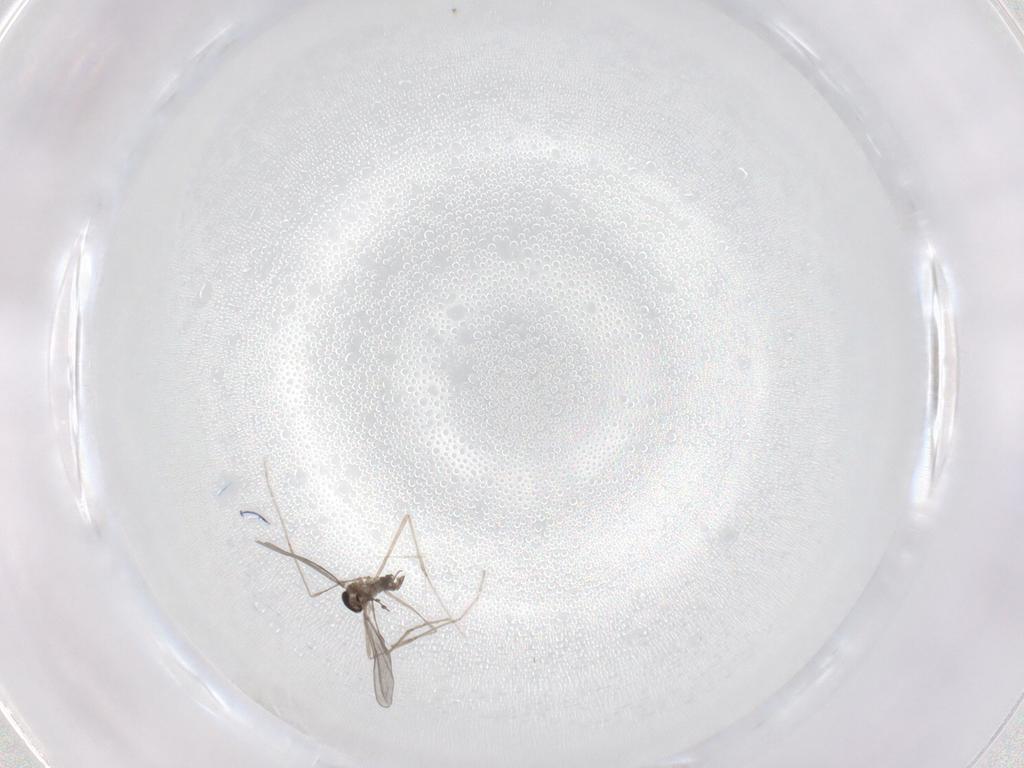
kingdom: Animalia
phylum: Arthropoda
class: Insecta
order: Diptera
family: Cecidomyiidae
